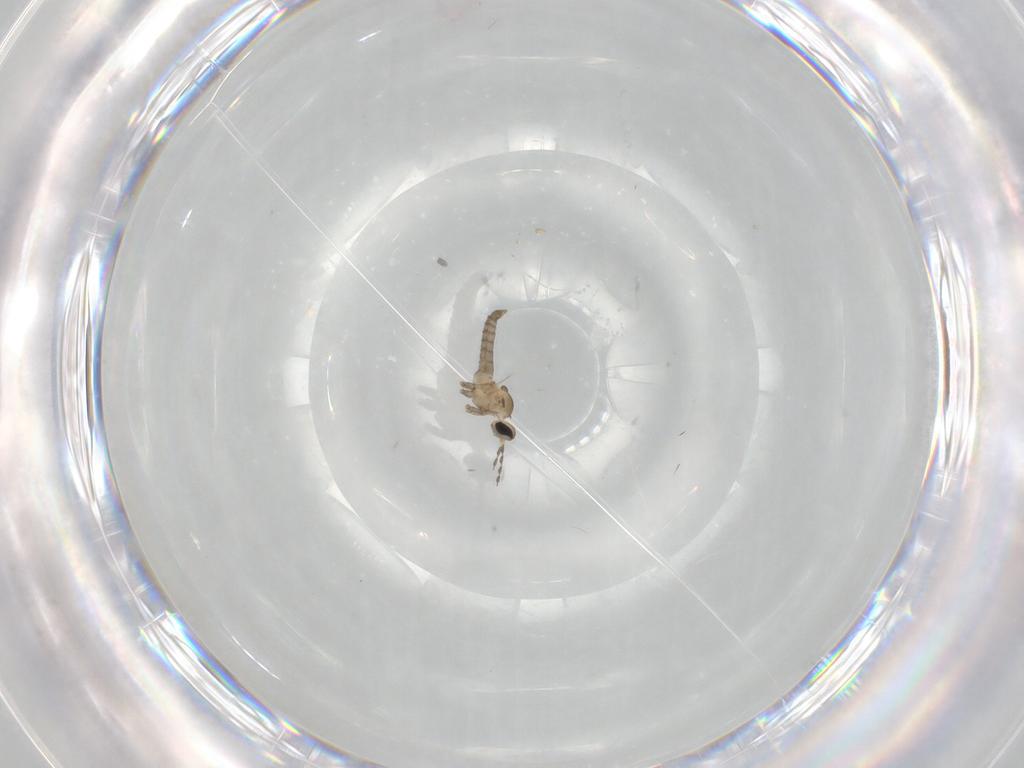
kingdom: Animalia
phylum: Arthropoda
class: Insecta
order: Diptera
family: Cecidomyiidae
